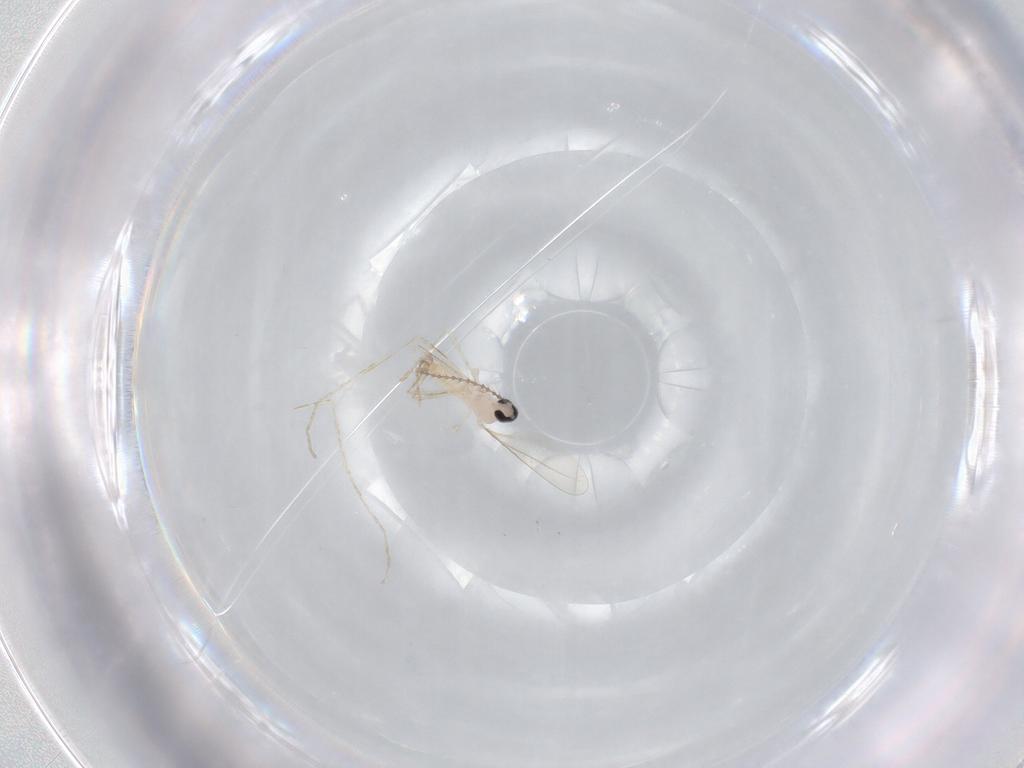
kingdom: Animalia
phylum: Arthropoda
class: Insecta
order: Diptera
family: Cecidomyiidae
